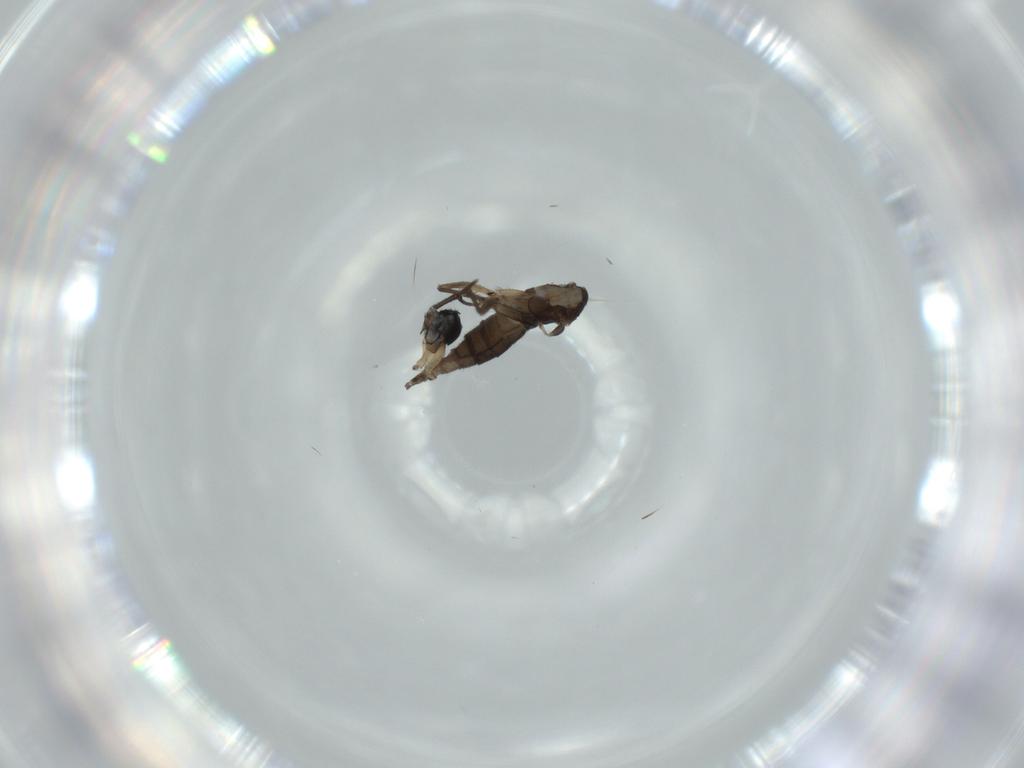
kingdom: Animalia
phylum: Arthropoda
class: Insecta
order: Diptera
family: Sciaridae
